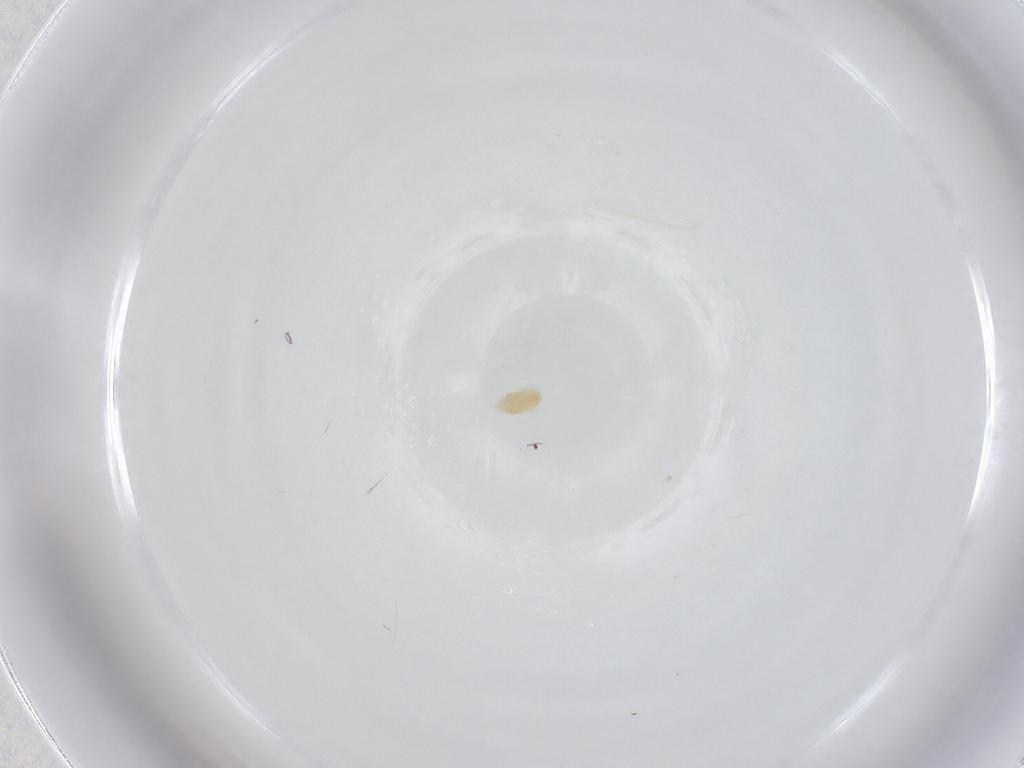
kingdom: Animalia
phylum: Arthropoda
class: Arachnida
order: Trombidiformes
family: Eupodidae
